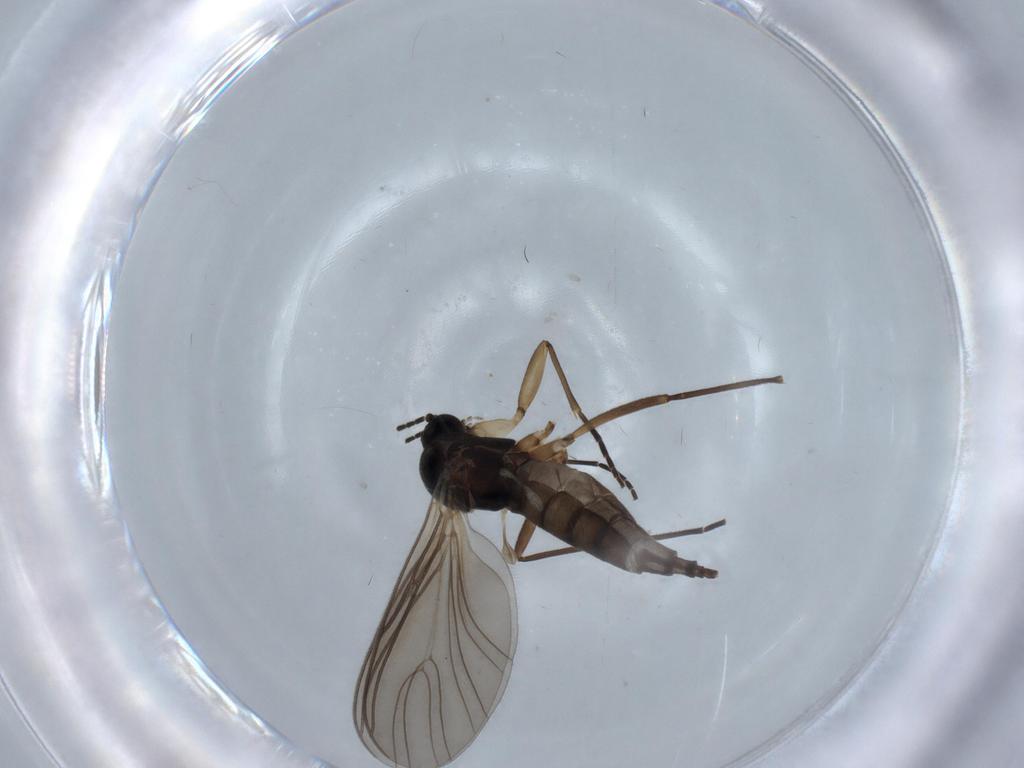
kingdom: Animalia
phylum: Arthropoda
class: Insecta
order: Diptera
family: Sciaridae
